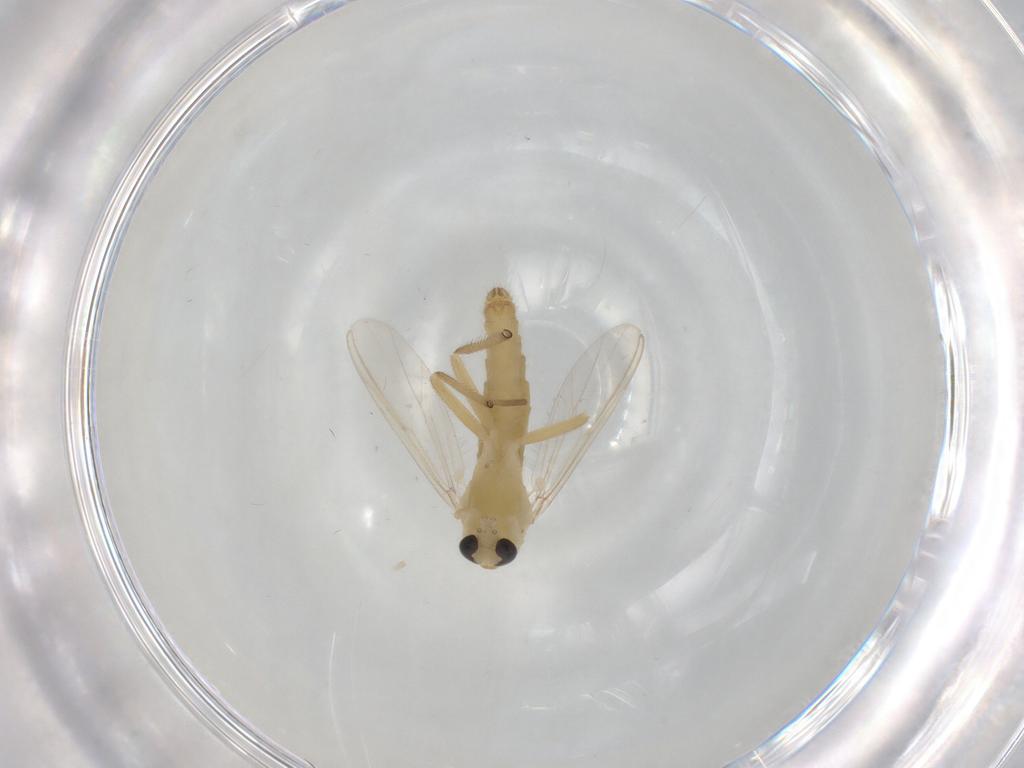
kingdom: Animalia
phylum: Arthropoda
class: Insecta
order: Diptera
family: Chironomidae
